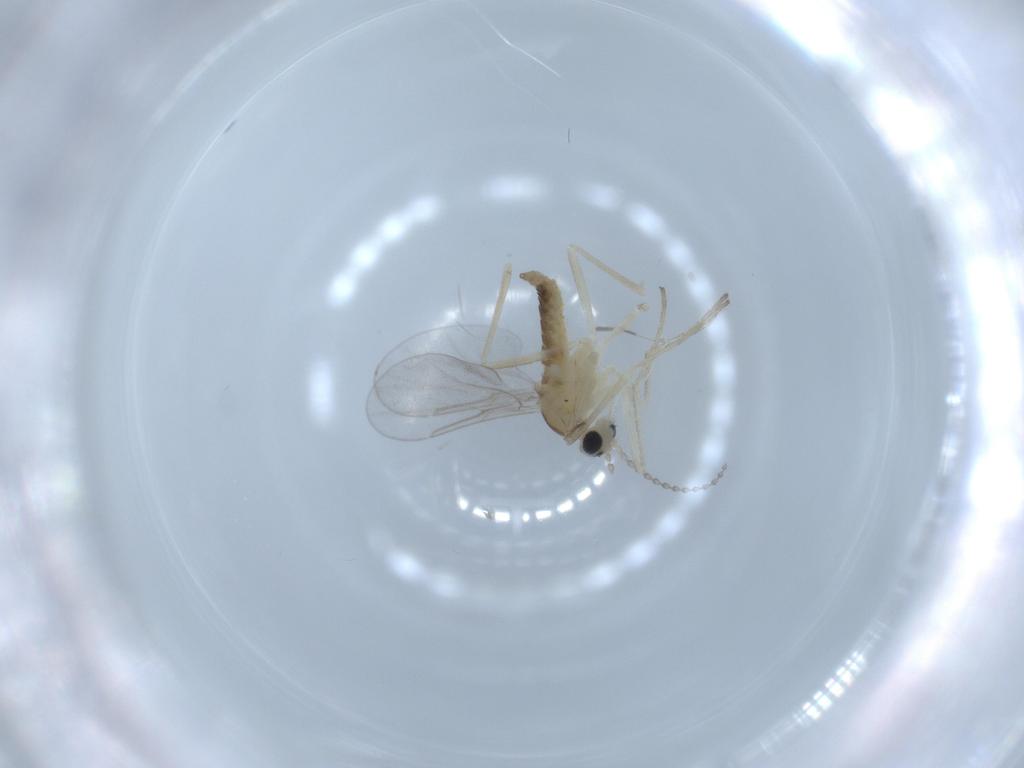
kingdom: Animalia
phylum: Arthropoda
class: Insecta
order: Diptera
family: Cecidomyiidae
